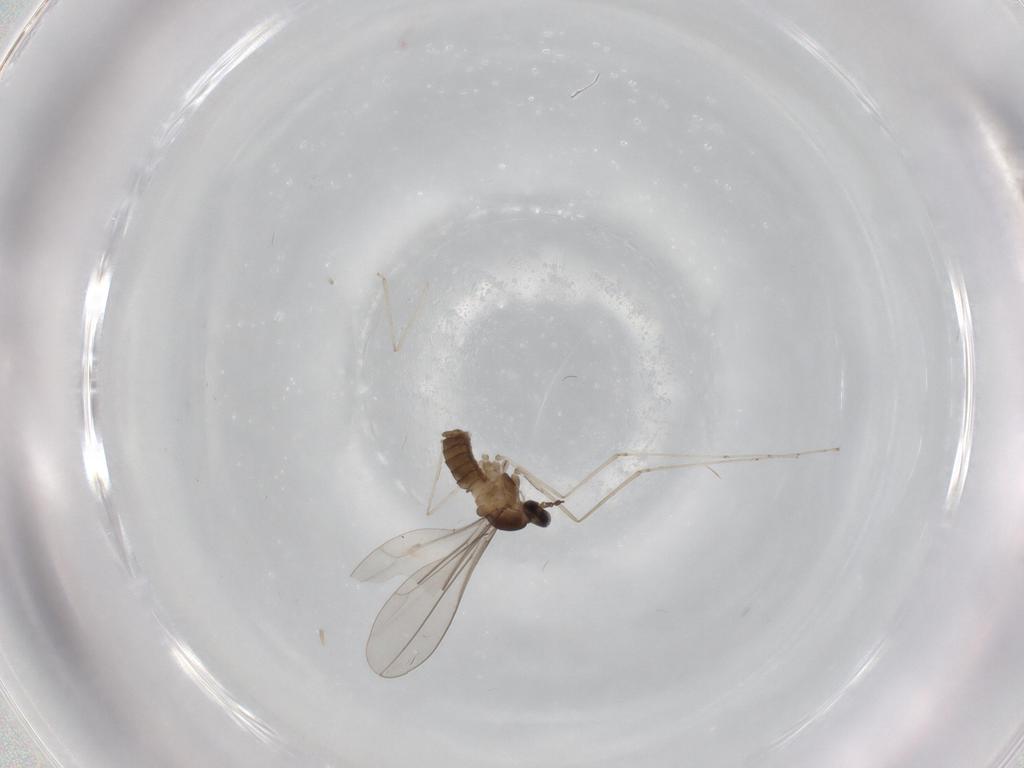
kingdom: Animalia
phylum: Arthropoda
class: Insecta
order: Diptera
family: Cecidomyiidae
